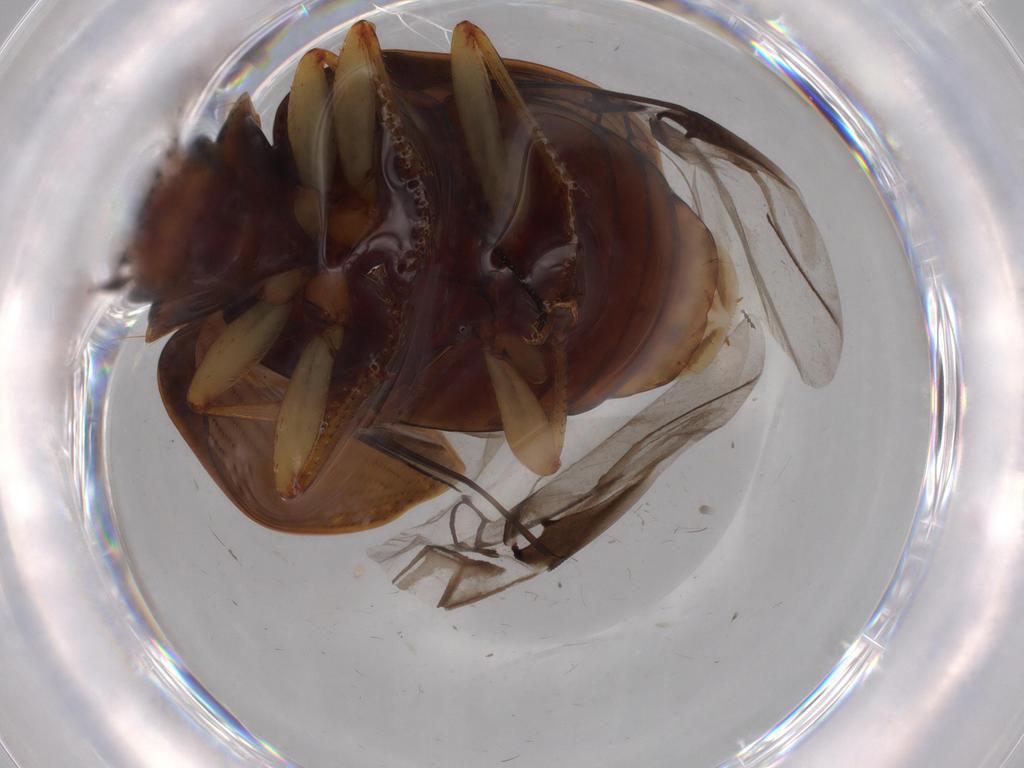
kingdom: Animalia
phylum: Arthropoda
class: Insecta
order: Coleoptera
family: Carabidae
